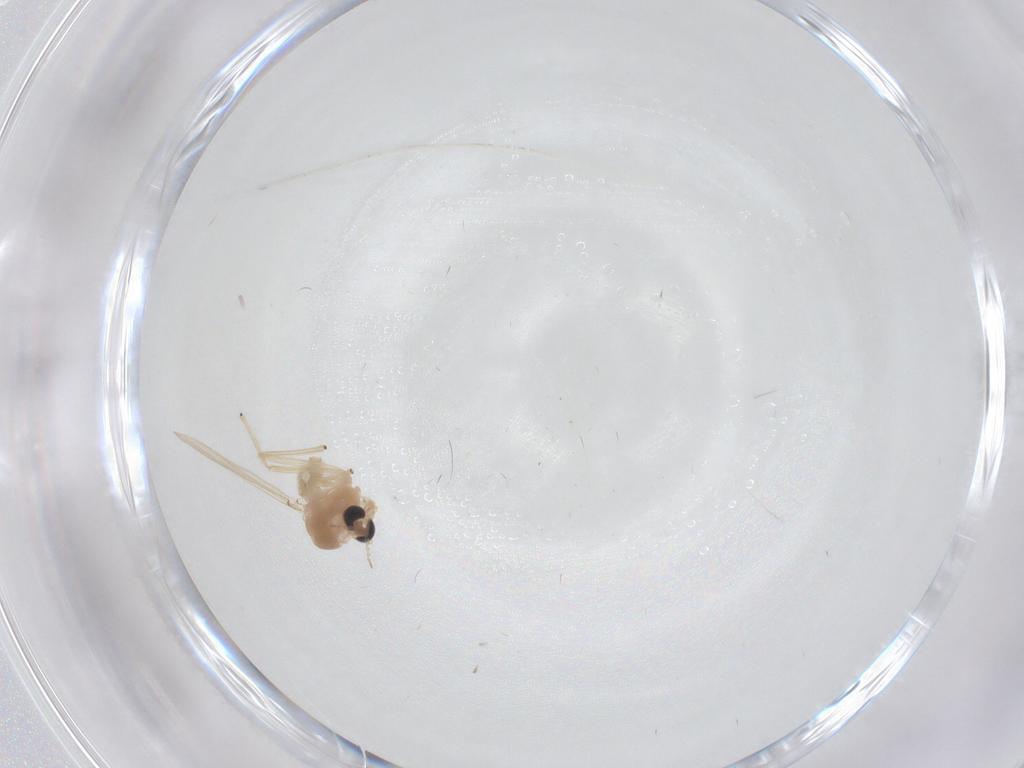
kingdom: Animalia
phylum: Arthropoda
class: Insecta
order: Diptera
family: Chironomidae
